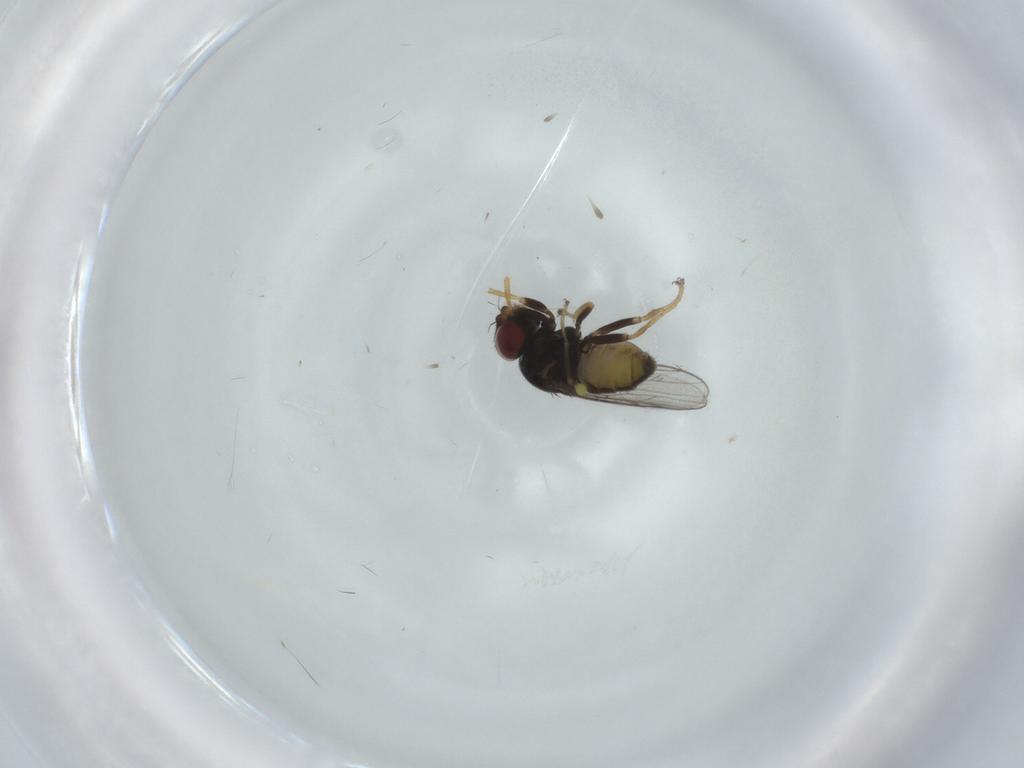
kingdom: Animalia
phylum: Arthropoda
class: Insecta
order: Diptera
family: Chloropidae
